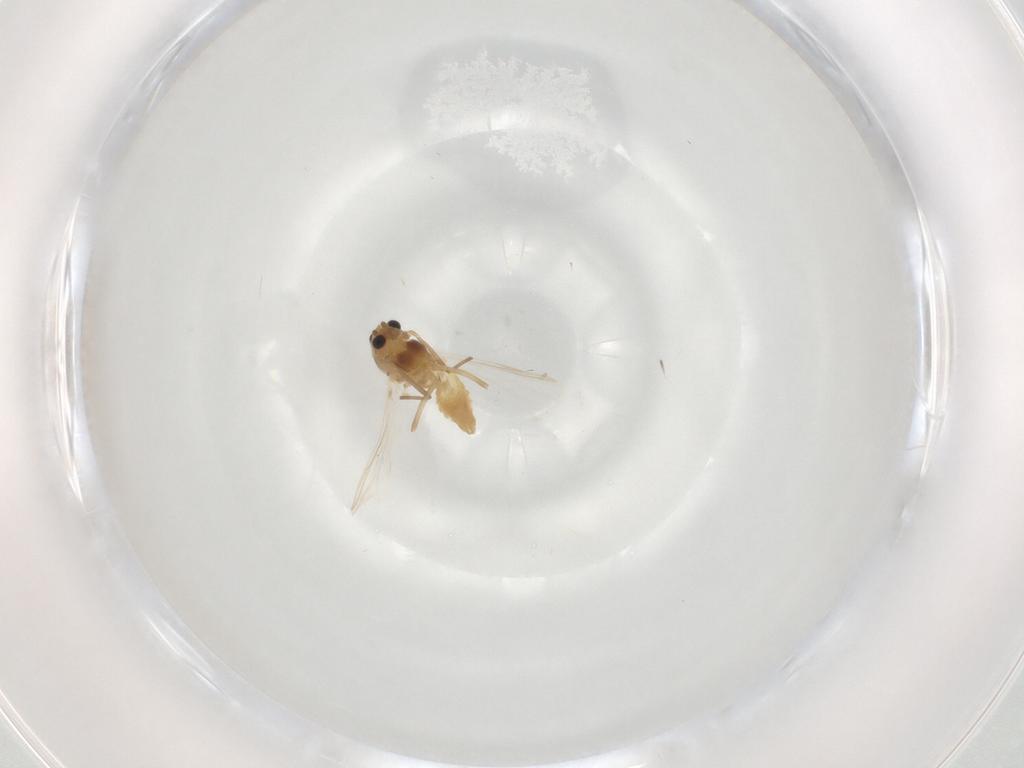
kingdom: Animalia
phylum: Arthropoda
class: Insecta
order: Diptera
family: Chironomidae
